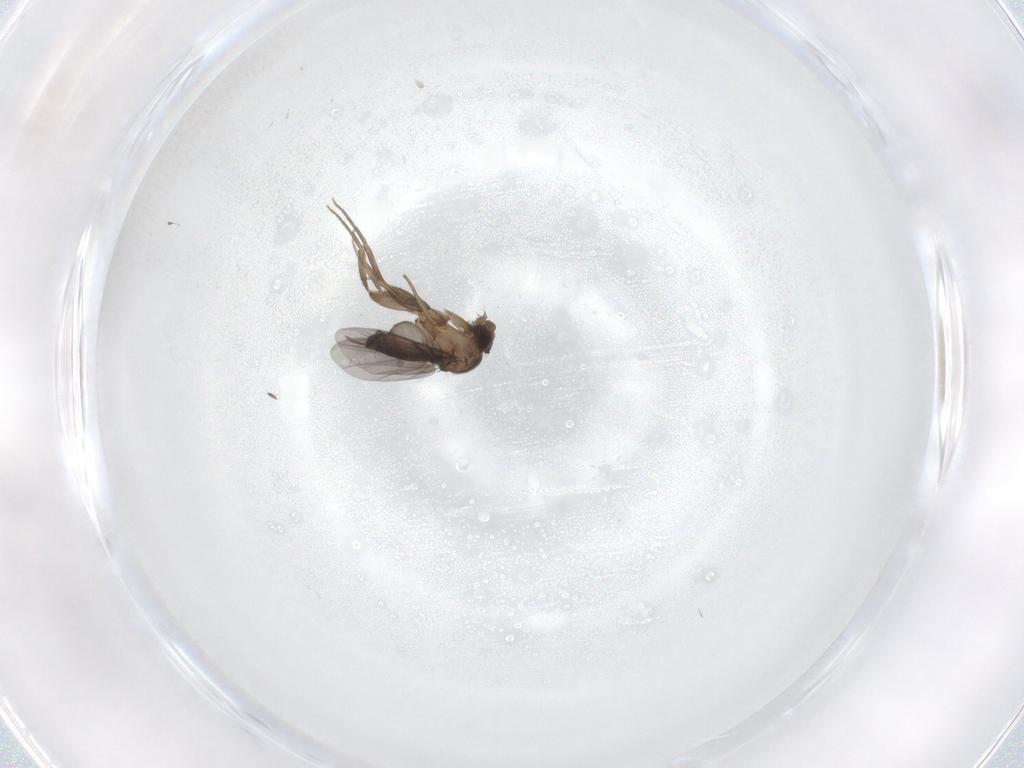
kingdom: Animalia
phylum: Arthropoda
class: Insecta
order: Diptera
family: Phoridae
